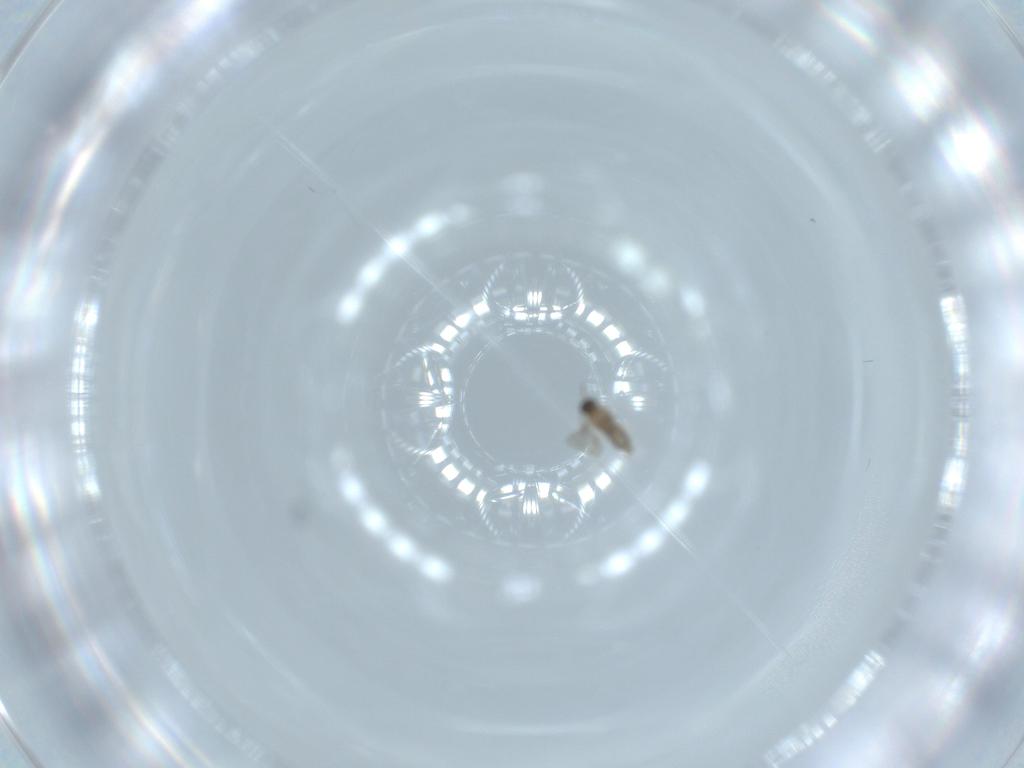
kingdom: Animalia
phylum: Arthropoda
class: Insecta
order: Diptera
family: Cecidomyiidae
